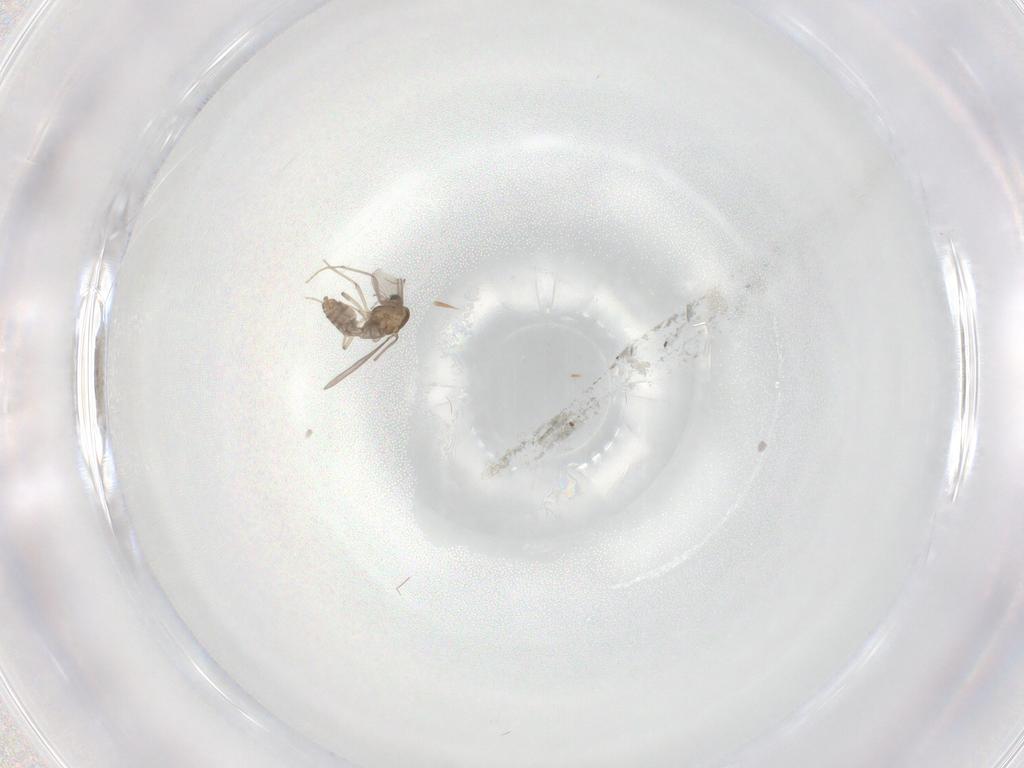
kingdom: Animalia
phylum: Arthropoda
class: Insecta
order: Diptera
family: Chironomidae
